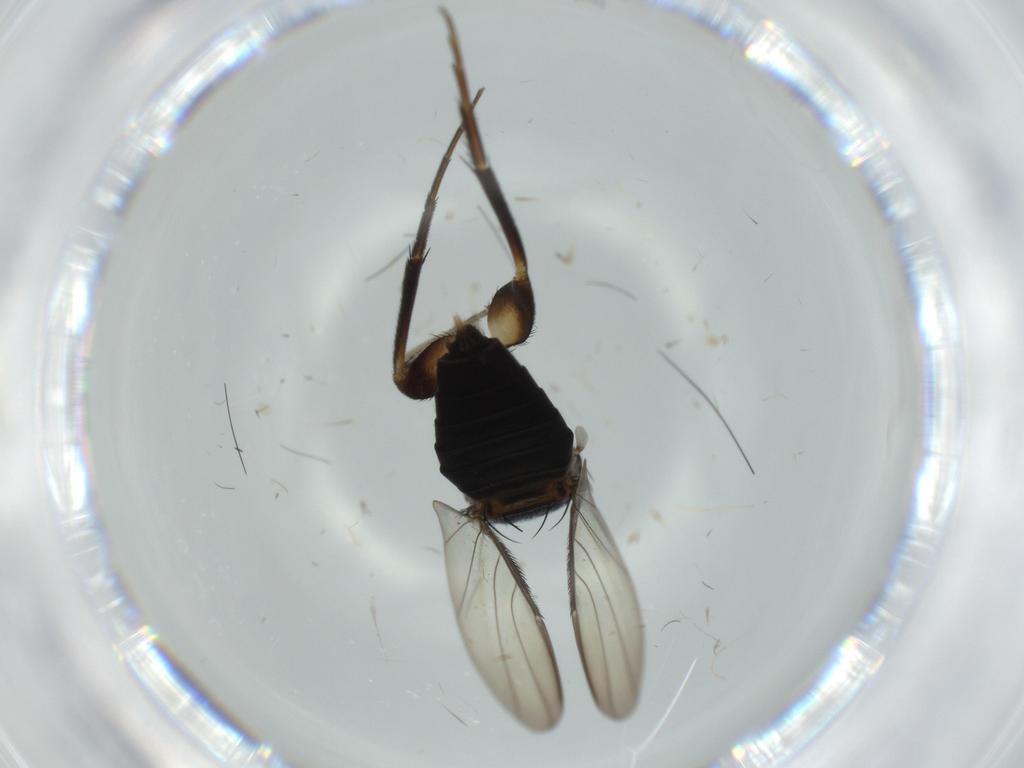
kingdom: Animalia
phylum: Arthropoda
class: Insecta
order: Diptera
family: Phoridae
